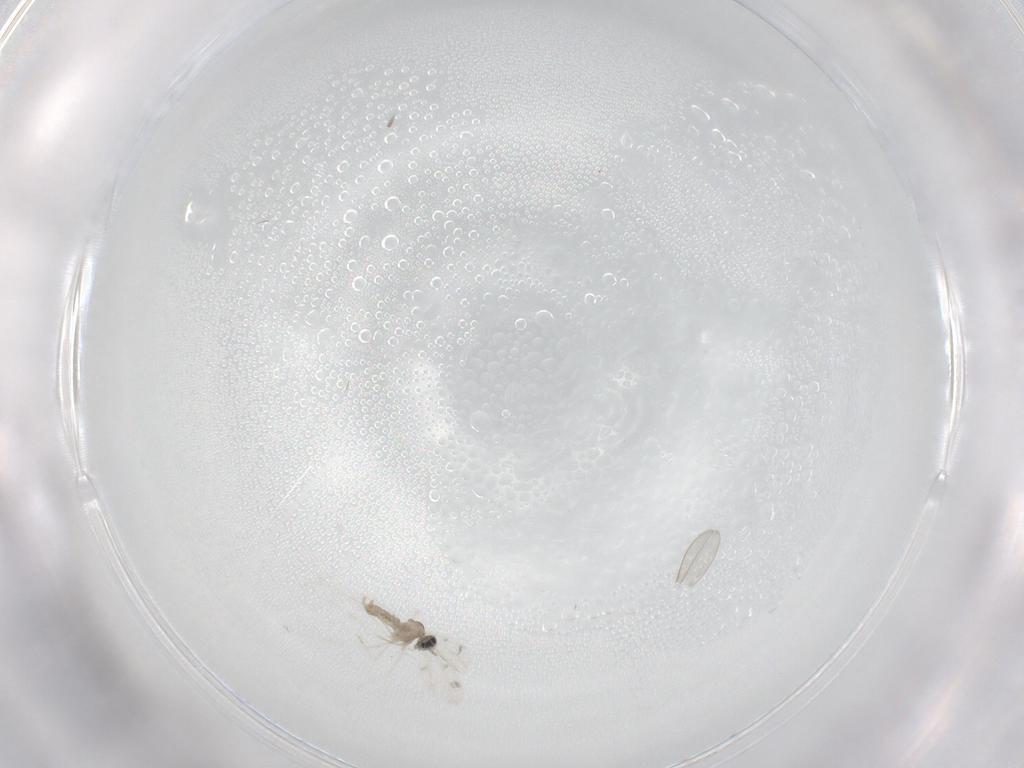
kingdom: Animalia
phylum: Arthropoda
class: Insecta
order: Diptera
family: Cecidomyiidae
